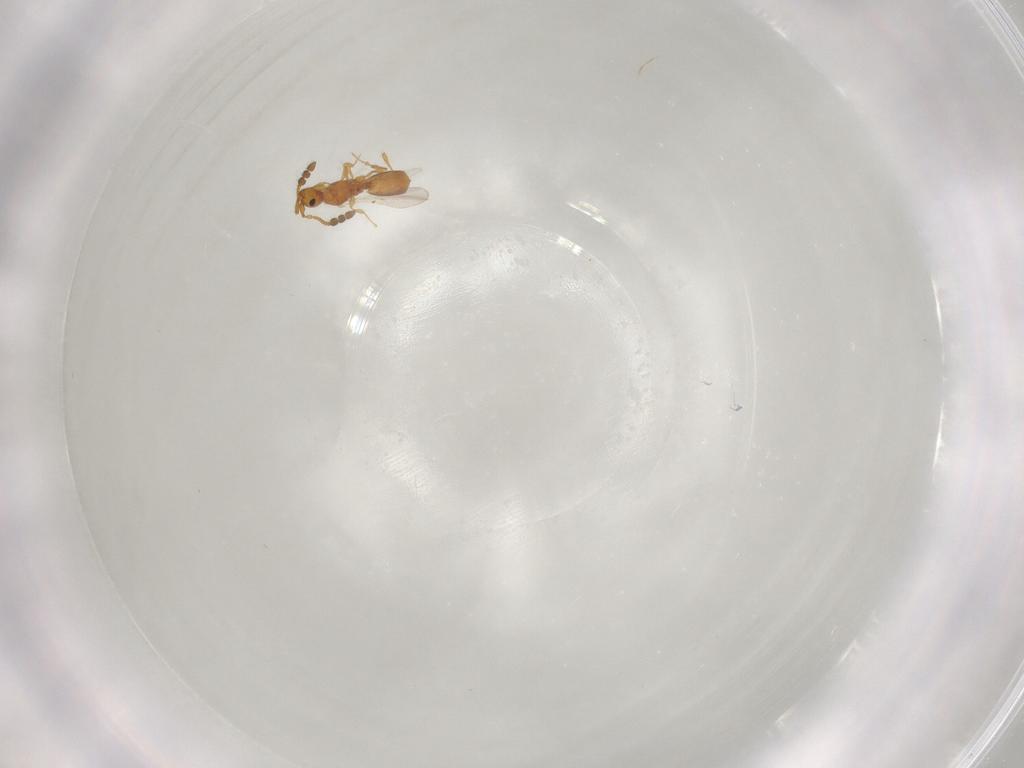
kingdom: Animalia
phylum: Arthropoda
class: Insecta
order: Hymenoptera
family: Diapriidae
